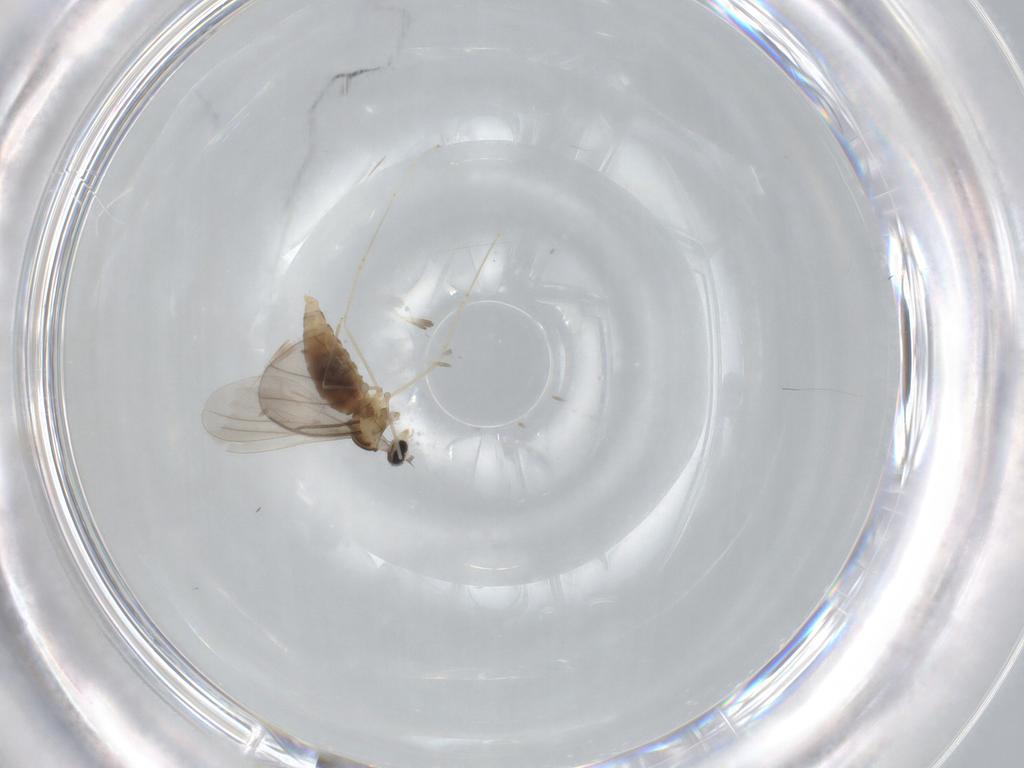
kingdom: Animalia
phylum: Arthropoda
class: Insecta
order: Diptera
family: Cecidomyiidae
